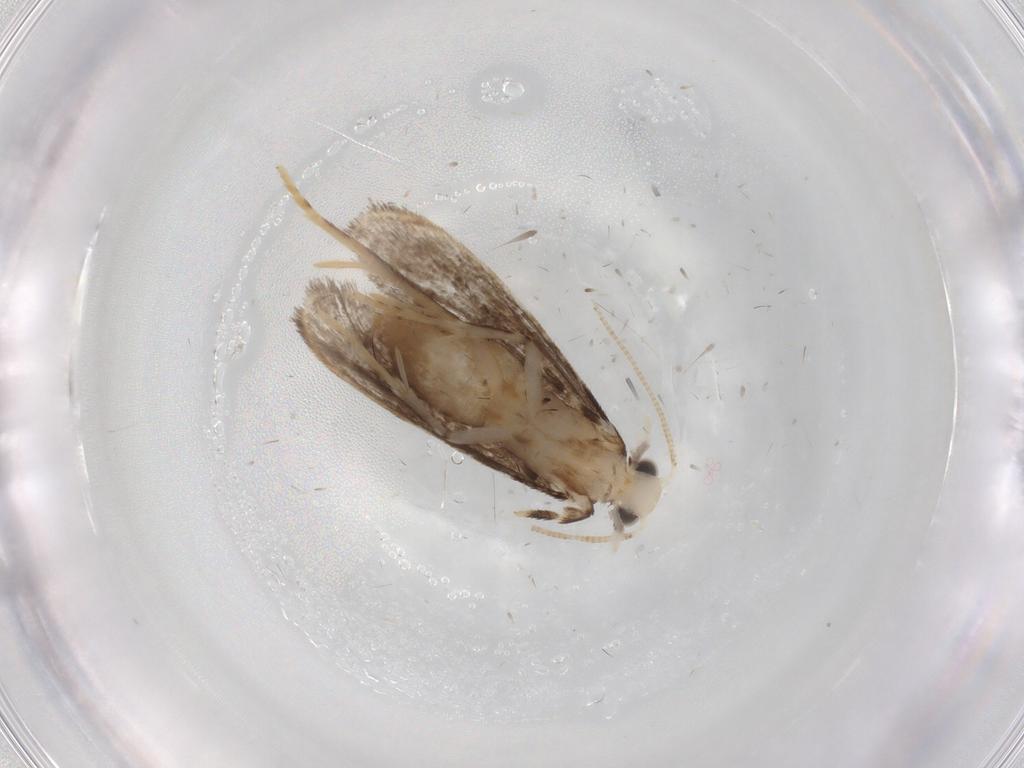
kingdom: Animalia
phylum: Arthropoda
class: Insecta
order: Lepidoptera
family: Dryadaulidae
